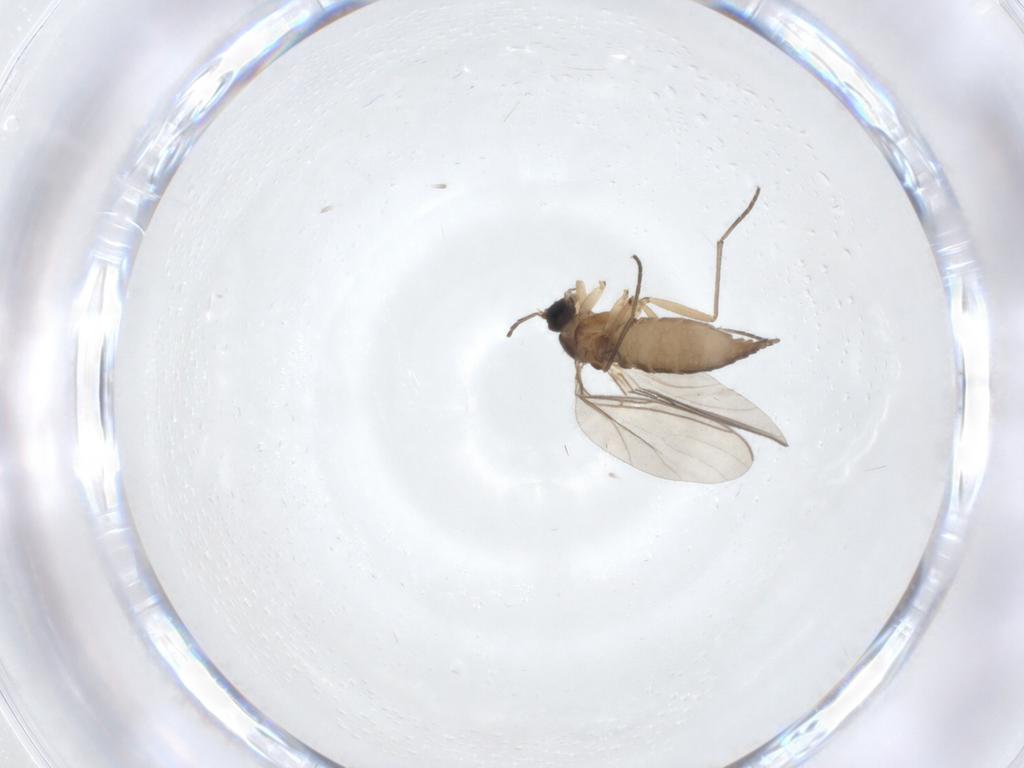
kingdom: Animalia
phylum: Arthropoda
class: Insecta
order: Diptera
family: Sciaridae
